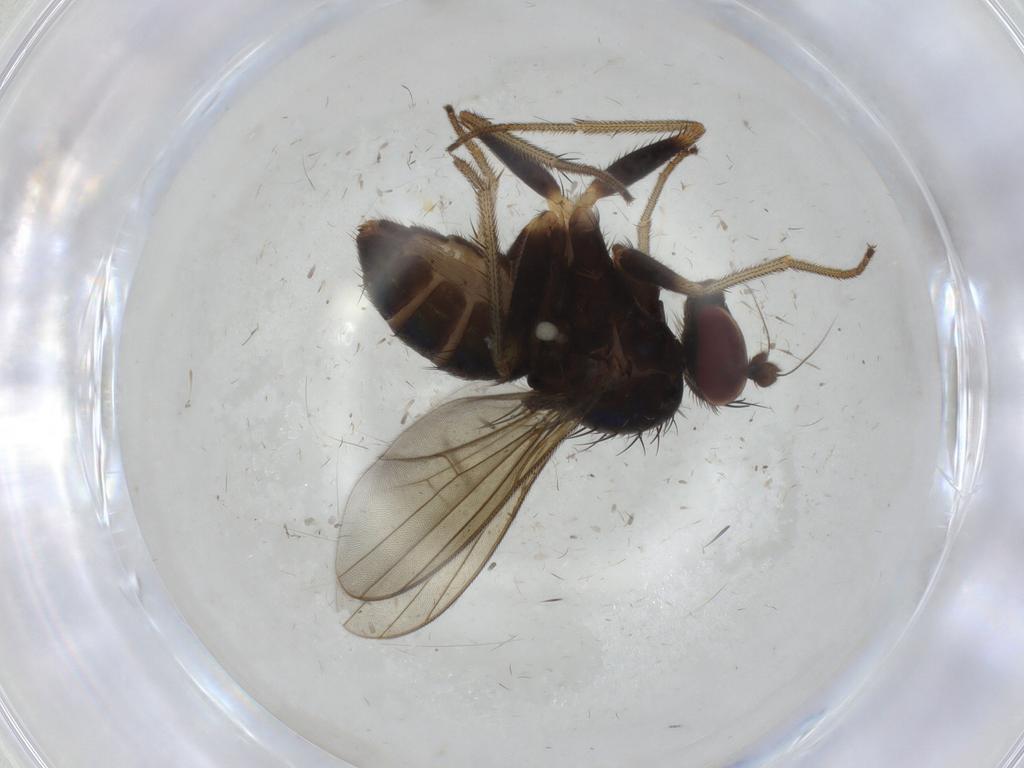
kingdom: Animalia
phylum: Arthropoda
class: Insecta
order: Diptera
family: Dolichopodidae
